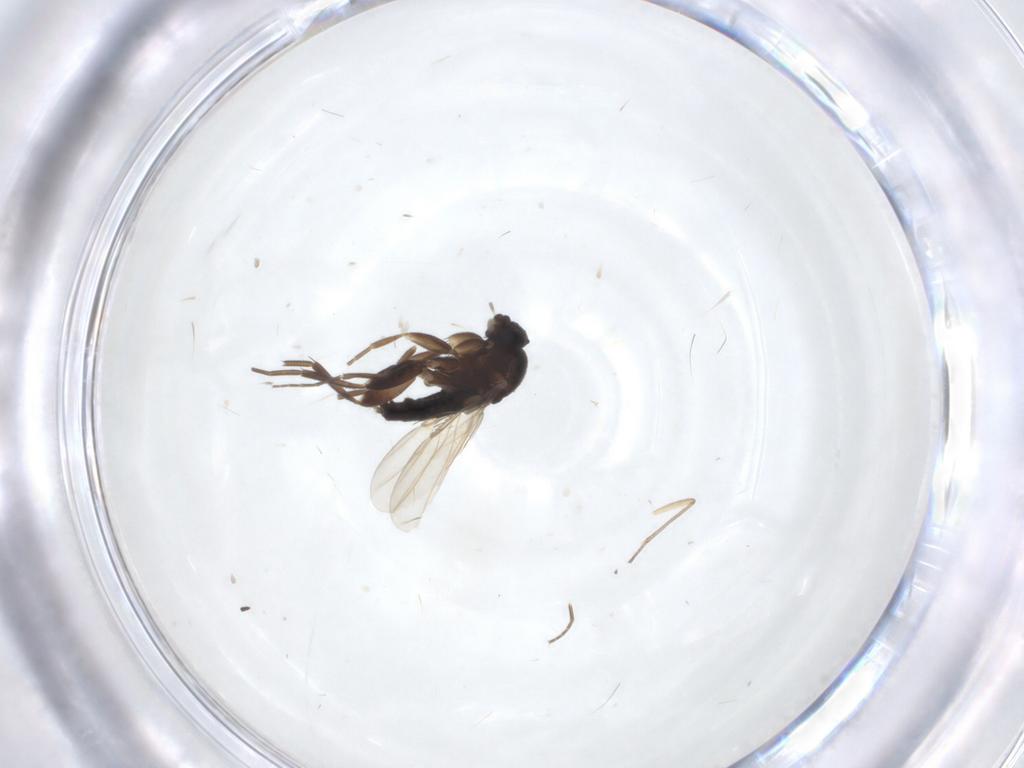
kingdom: Animalia
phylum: Arthropoda
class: Insecta
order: Diptera
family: Phoridae
